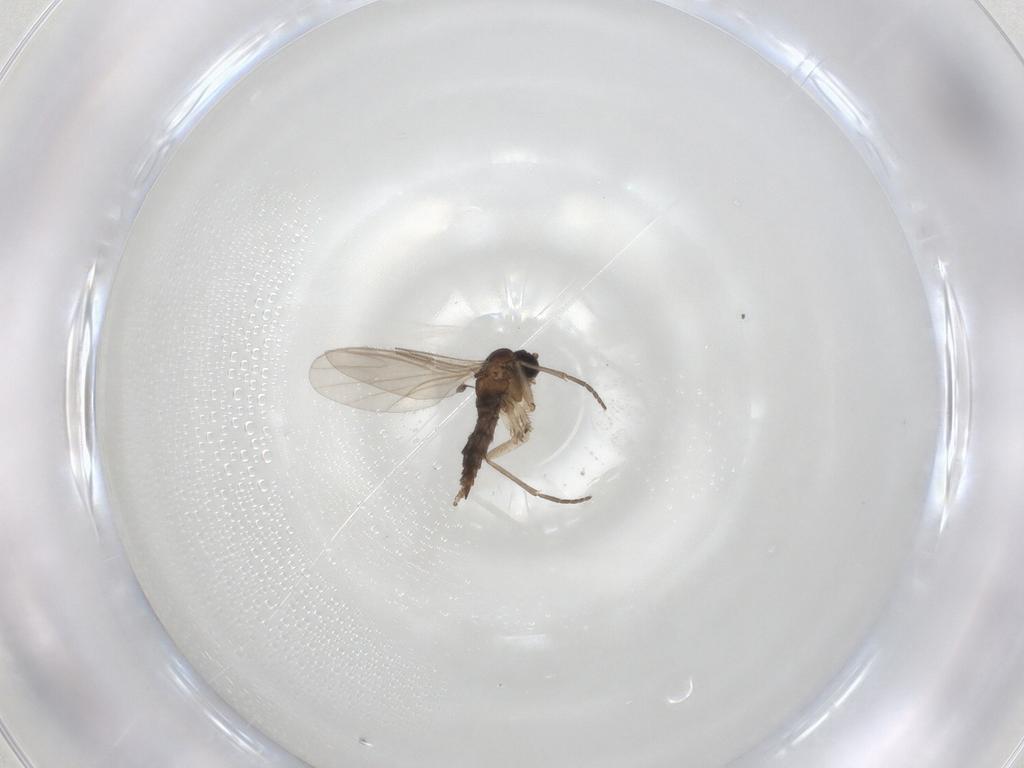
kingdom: Animalia
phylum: Arthropoda
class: Insecta
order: Diptera
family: Sciaridae
